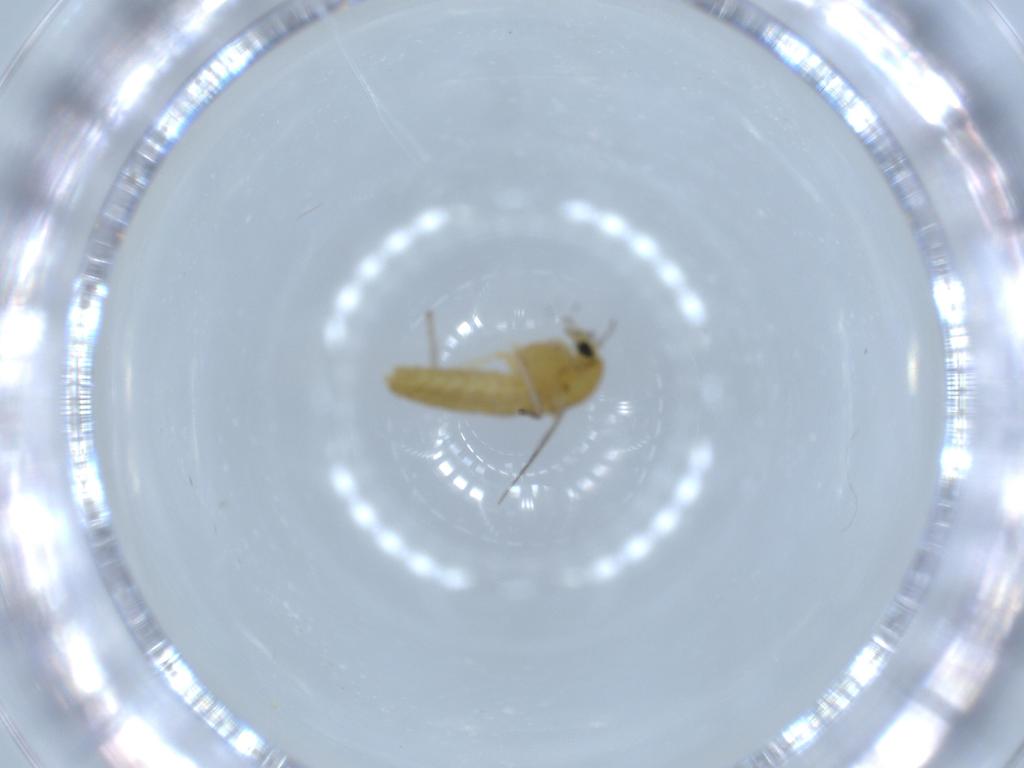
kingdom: Animalia
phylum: Arthropoda
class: Insecta
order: Diptera
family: Chironomidae
